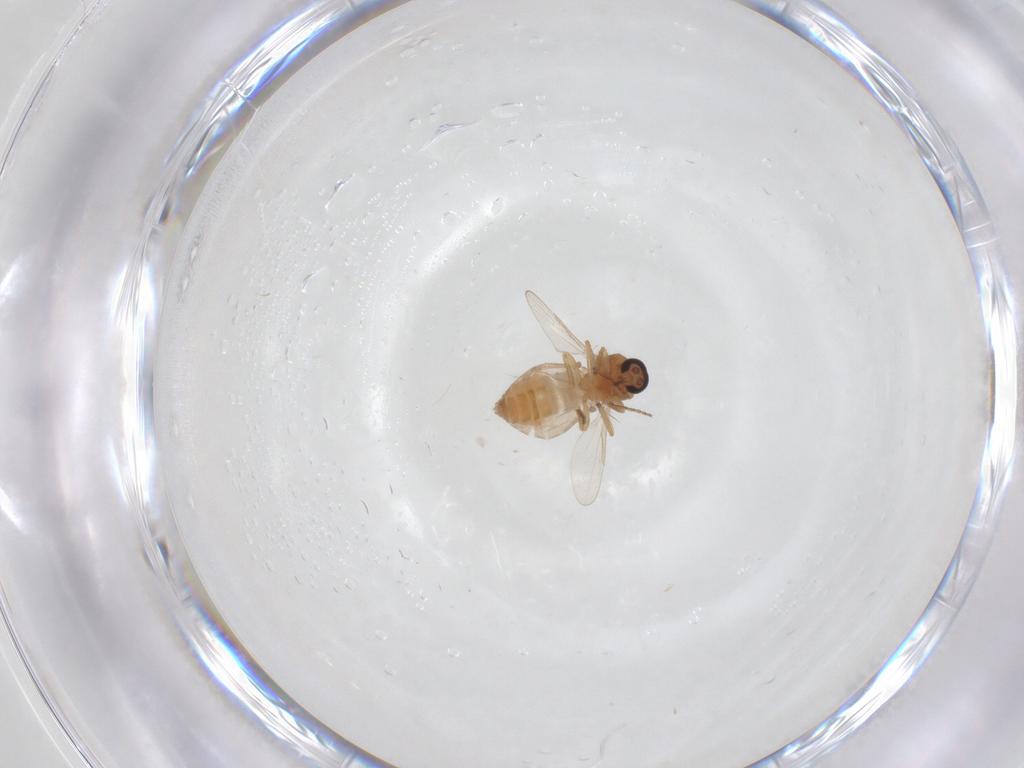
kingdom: Animalia
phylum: Arthropoda
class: Insecta
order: Diptera
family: Ceratopogonidae
